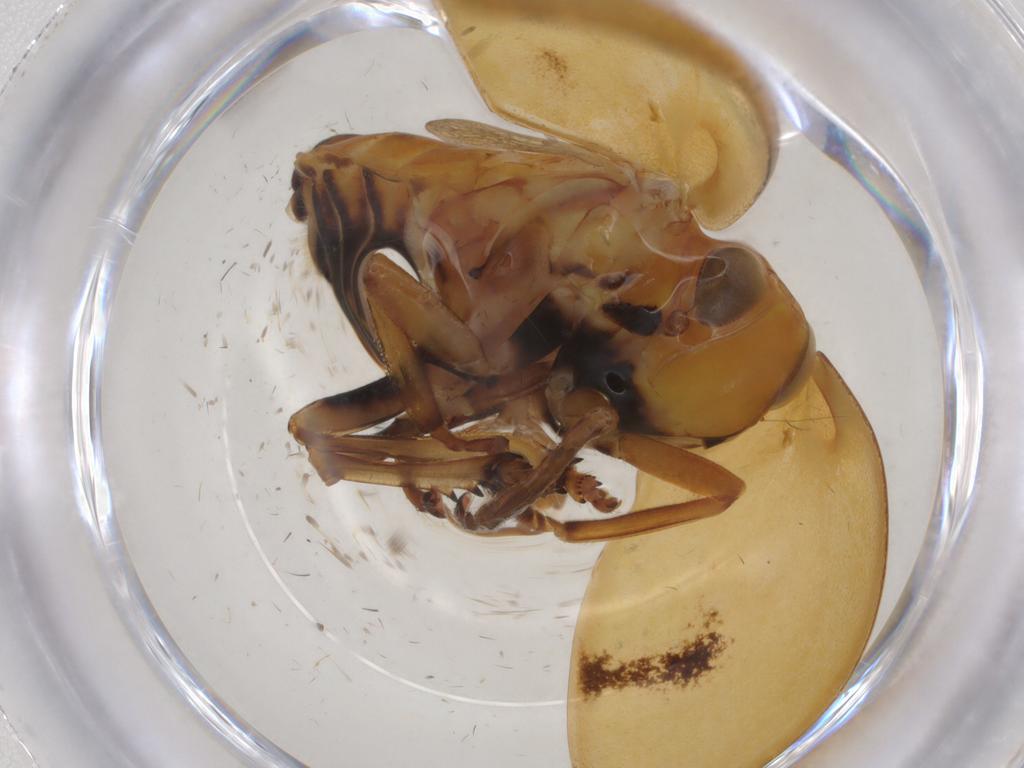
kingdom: Animalia
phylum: Arthropoda
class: Insecta
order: Hemiptera
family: Issidae
